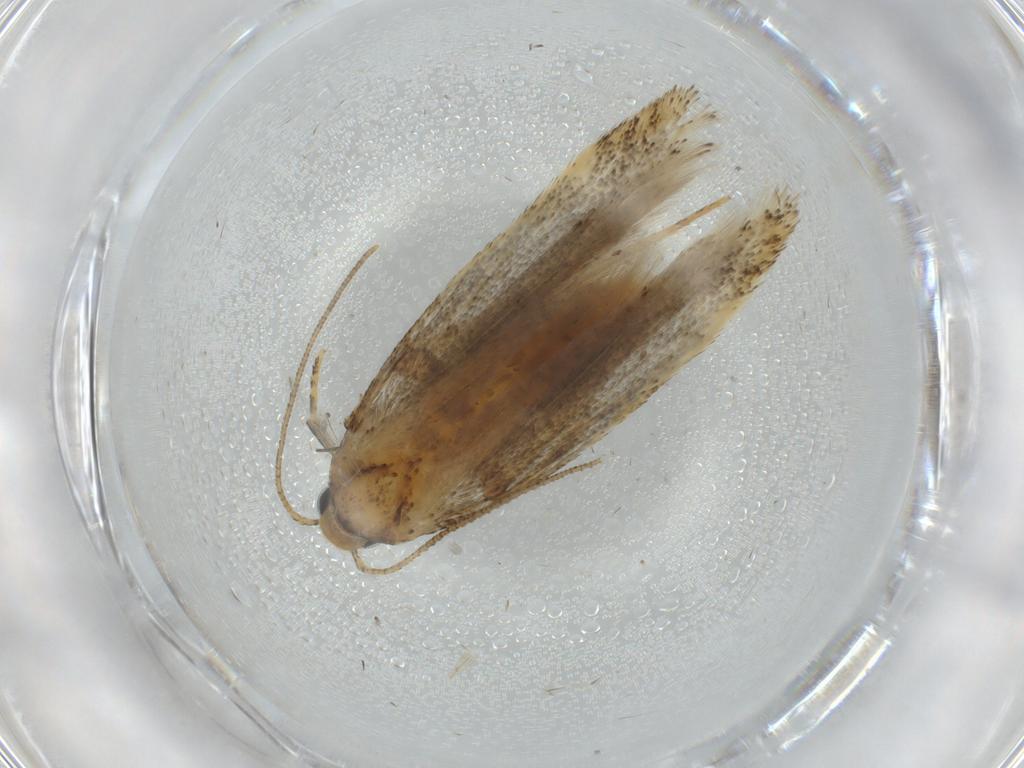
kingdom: Animalia
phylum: Arthropoda
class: Insecta
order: Lepidoptera
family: Gelechiidae
